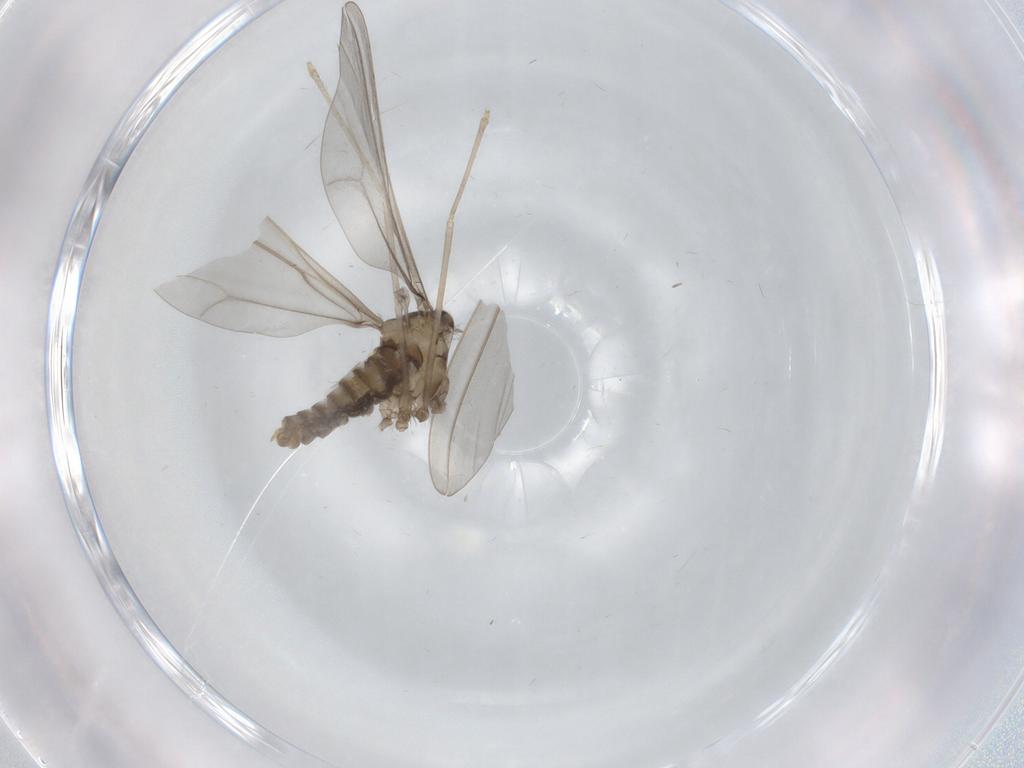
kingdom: Animalia
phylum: Arthropoda
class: Insecta
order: Diptera
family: Cecidomyiidae
